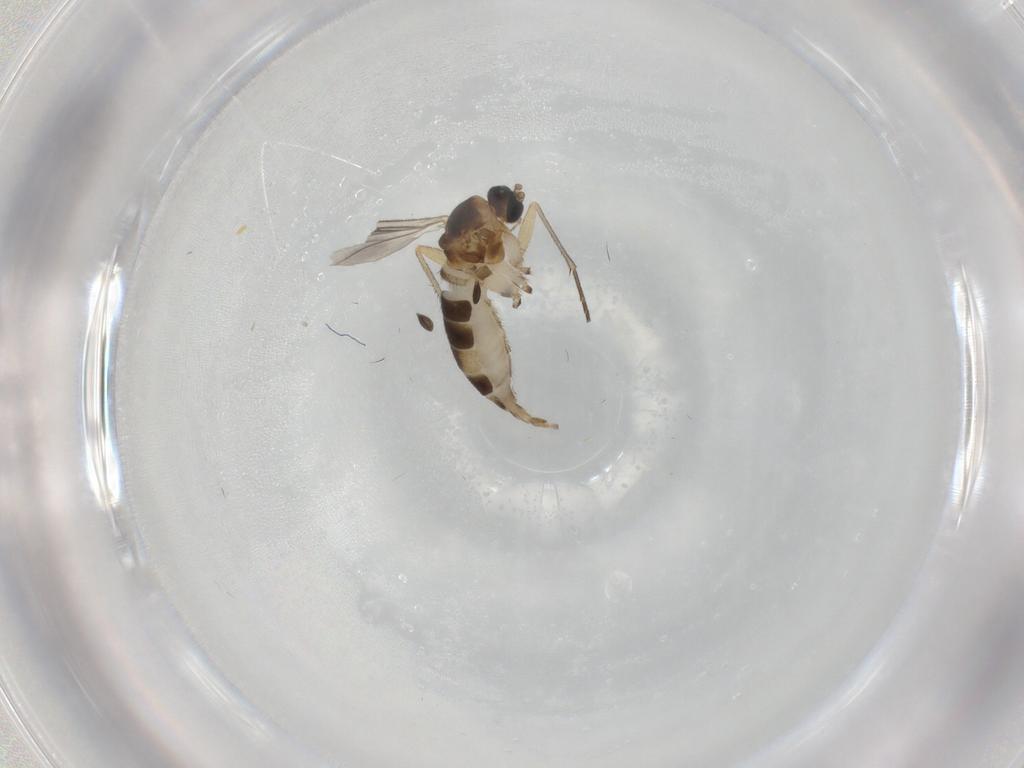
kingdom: Animalia
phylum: Arthropoda
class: Insecta
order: Diptera
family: Sciaridae
